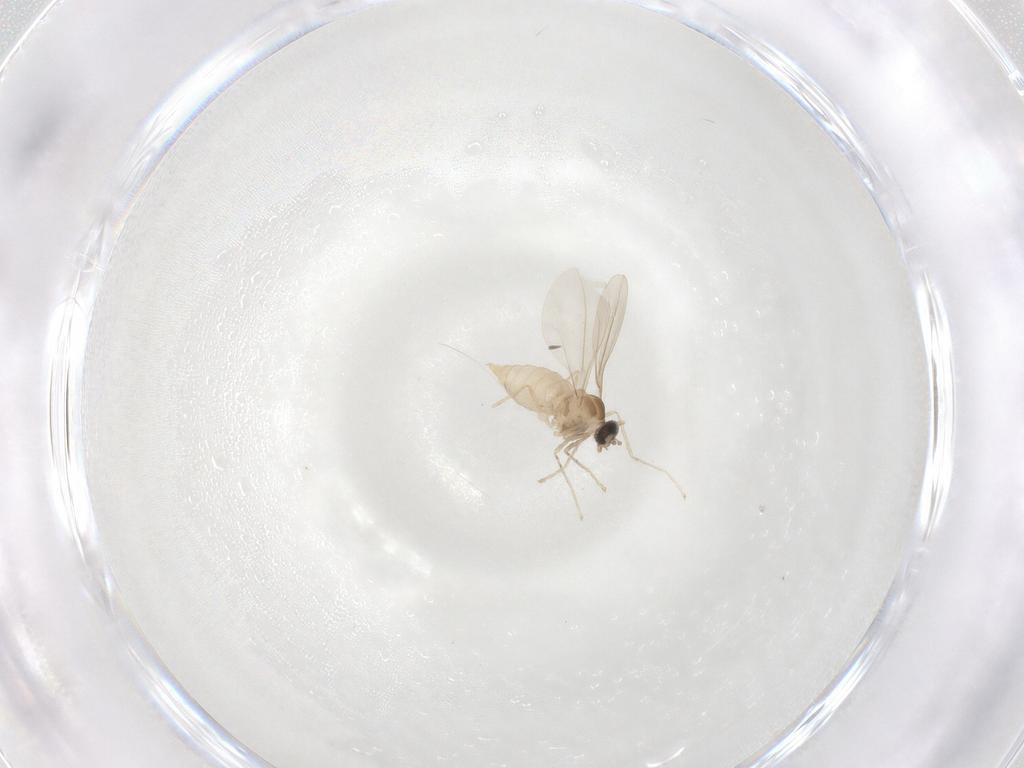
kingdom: Animalia
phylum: Arthropoda
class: Insecta
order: Diptera
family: Cecidomyiidae
